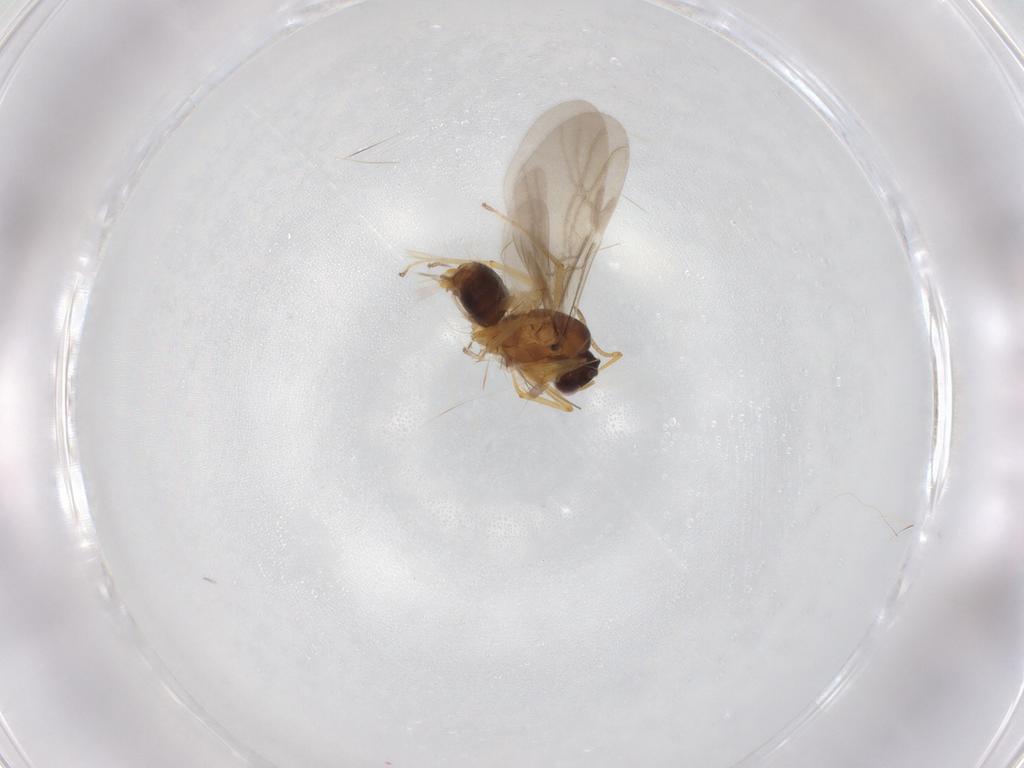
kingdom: Animalia
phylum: Arthropoda
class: Insecta
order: Hymenoptera
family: Formicidae
